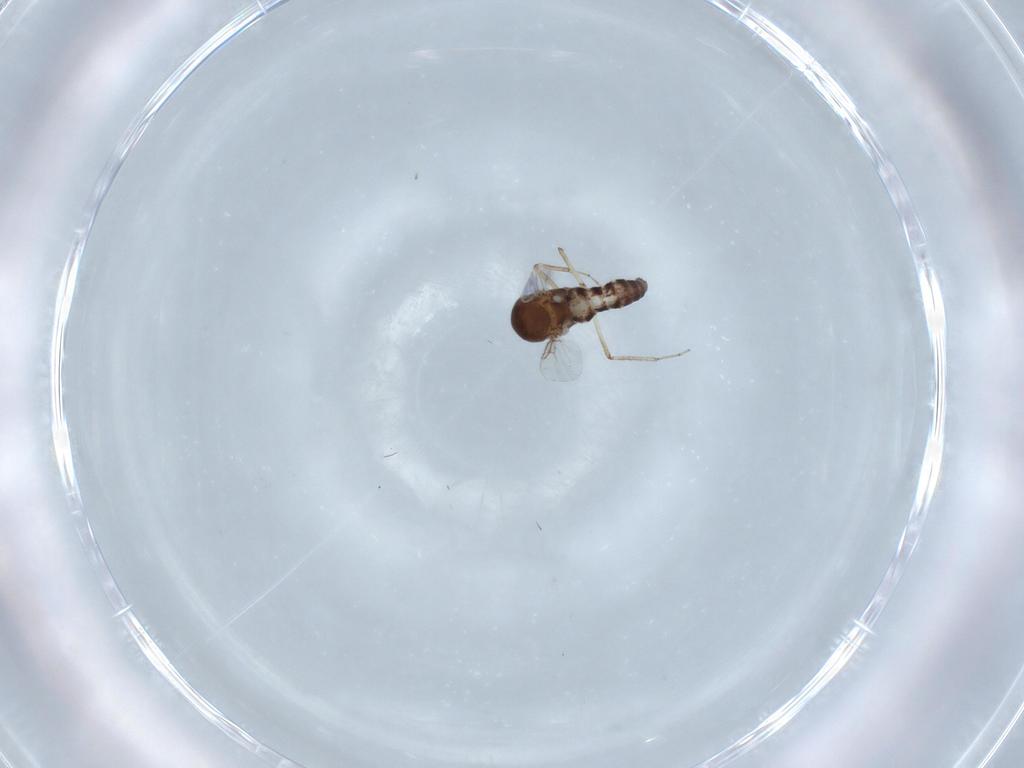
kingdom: Animalia
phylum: Arthropoda
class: Insecta
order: Diptera
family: Ceratopogonidae
